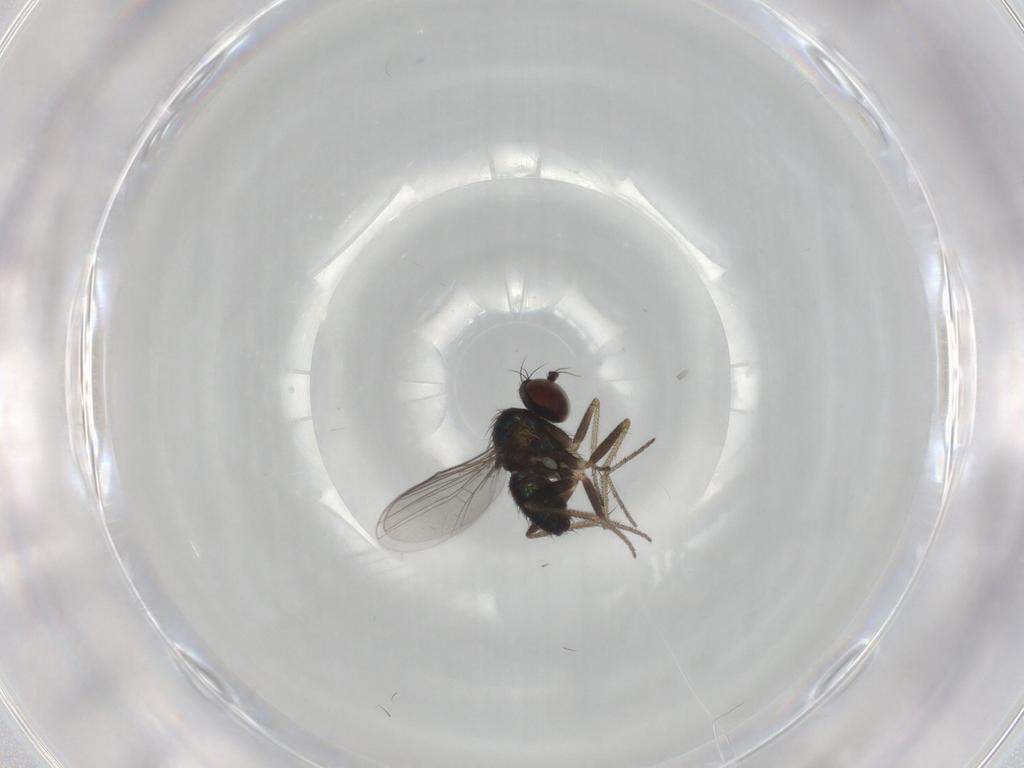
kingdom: Animalia
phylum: Arthropoda
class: Insecta
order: Diptera
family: Dolichopodidae
